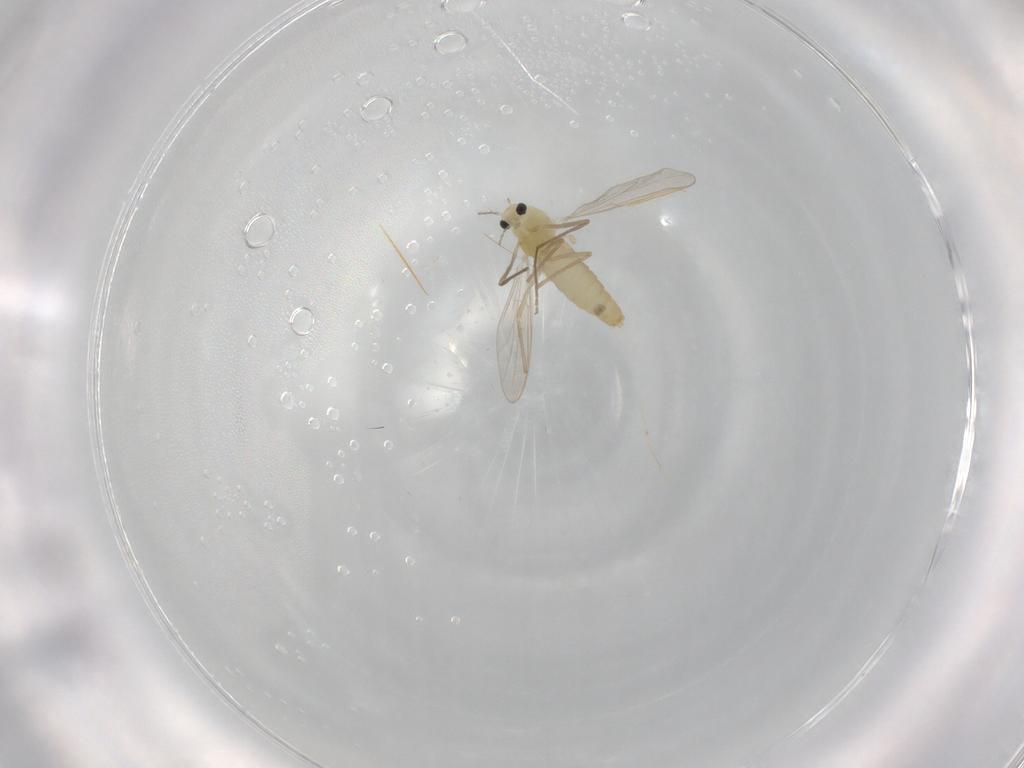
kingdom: Animalia
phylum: Arthropoda
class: Insecta
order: Diptera
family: Chironomidae
